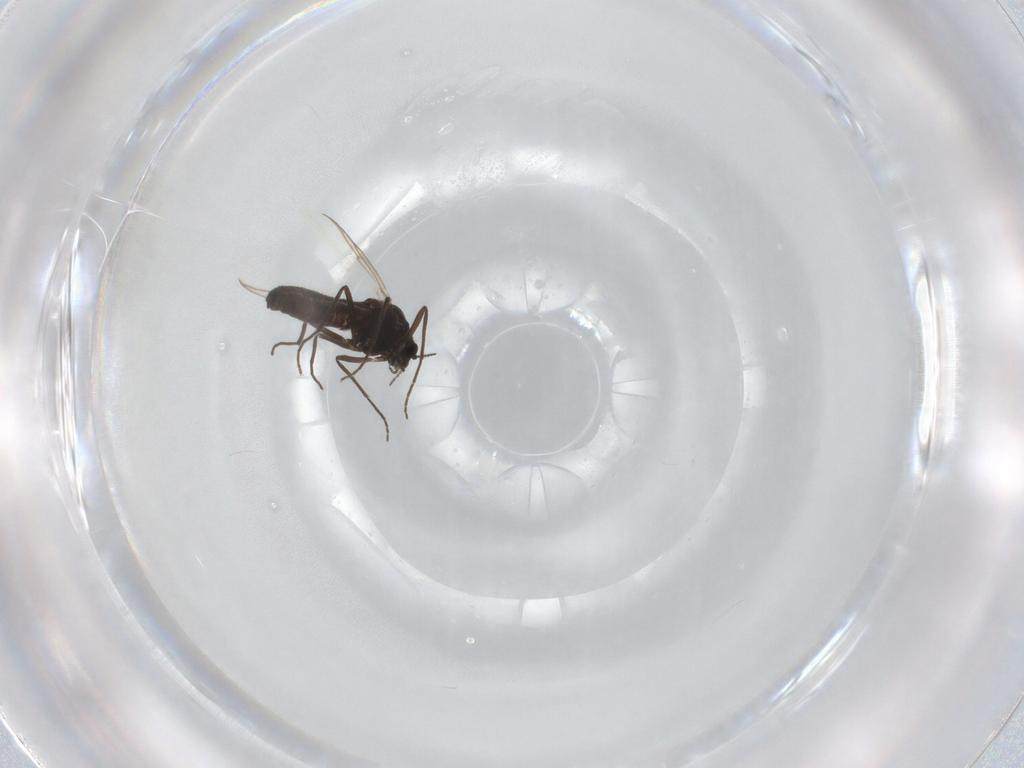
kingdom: Animalia
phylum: Arthropoda
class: Insecta
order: Diptera
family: Chironomidae
